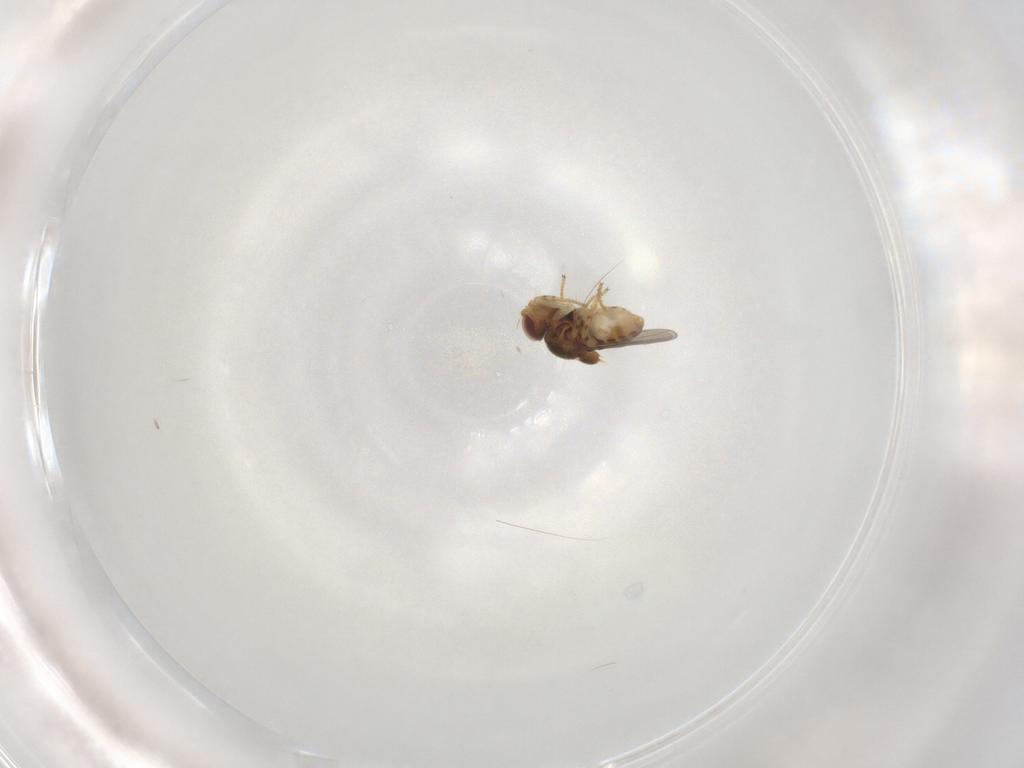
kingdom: Animalia
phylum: Arthropoda
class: Insecta
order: Diptera
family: Chloropidae
